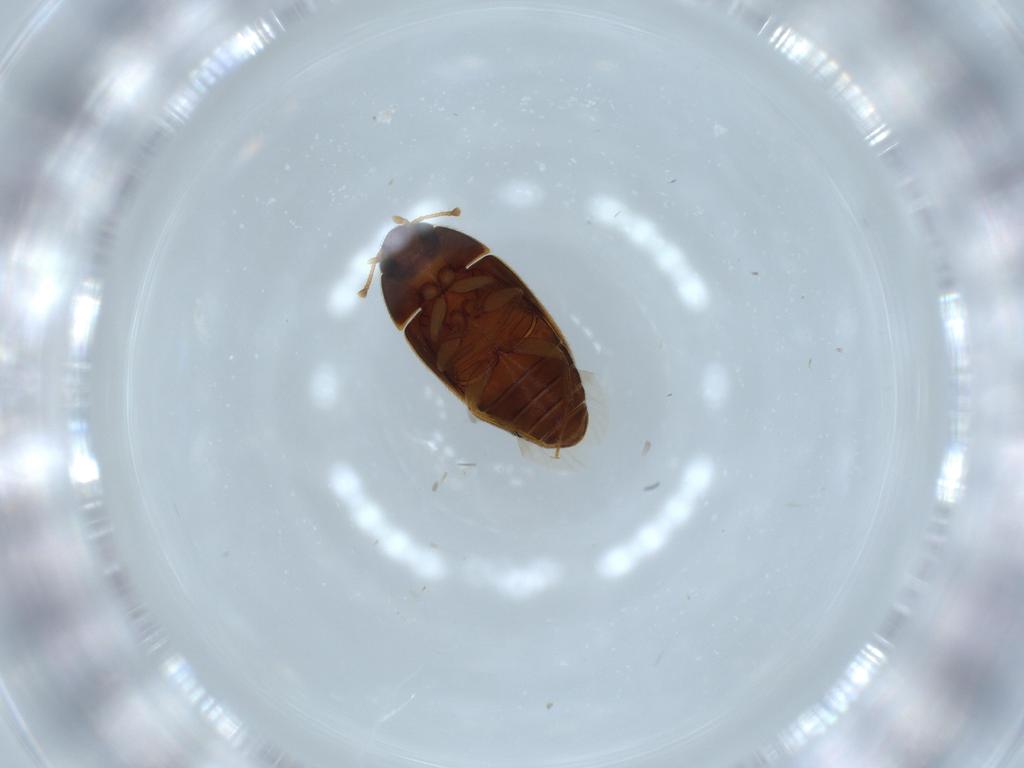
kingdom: Animalia
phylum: Arthropoda
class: Insecta
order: Coleoptera
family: Mycetophagidae
